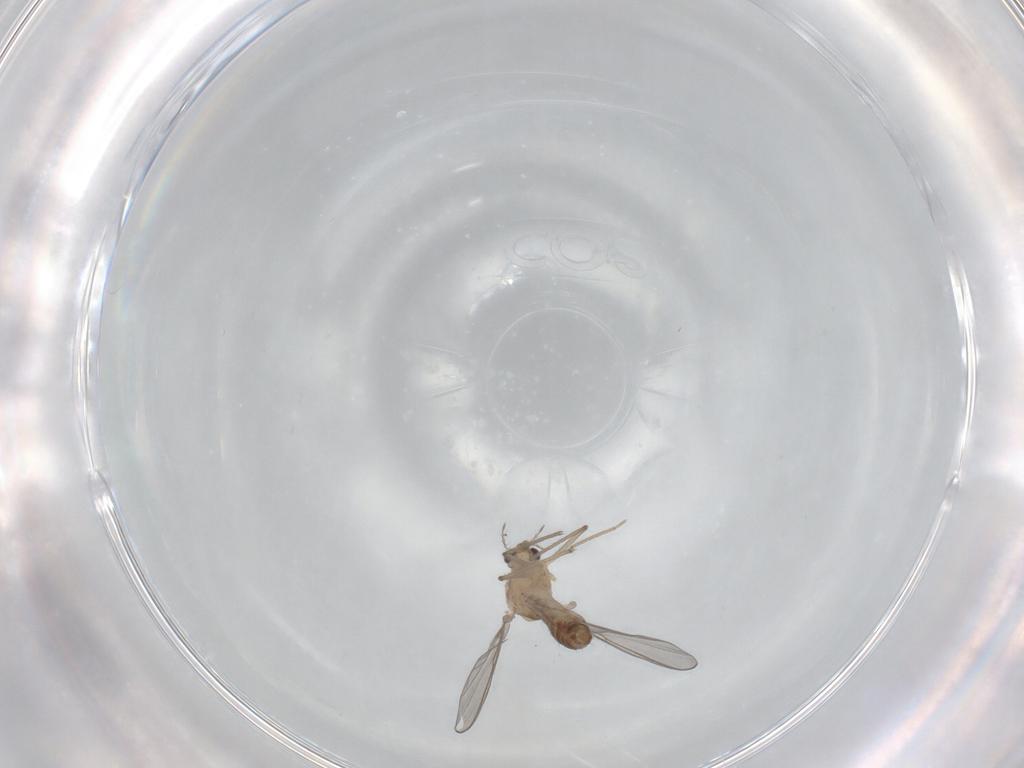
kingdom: Animalia
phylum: Arthropoda
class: Insecta
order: Diptera
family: Chironomidae
